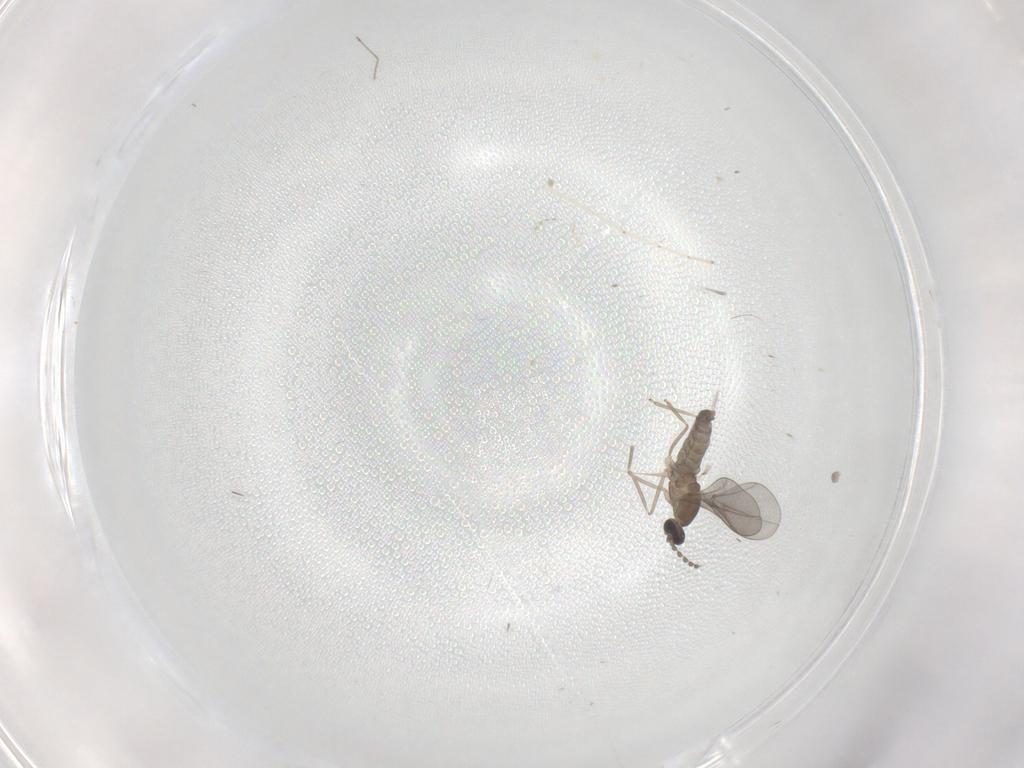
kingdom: Animalia
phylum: Arthropoda
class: Insecta
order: Diptera
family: Cecidomyiidae
